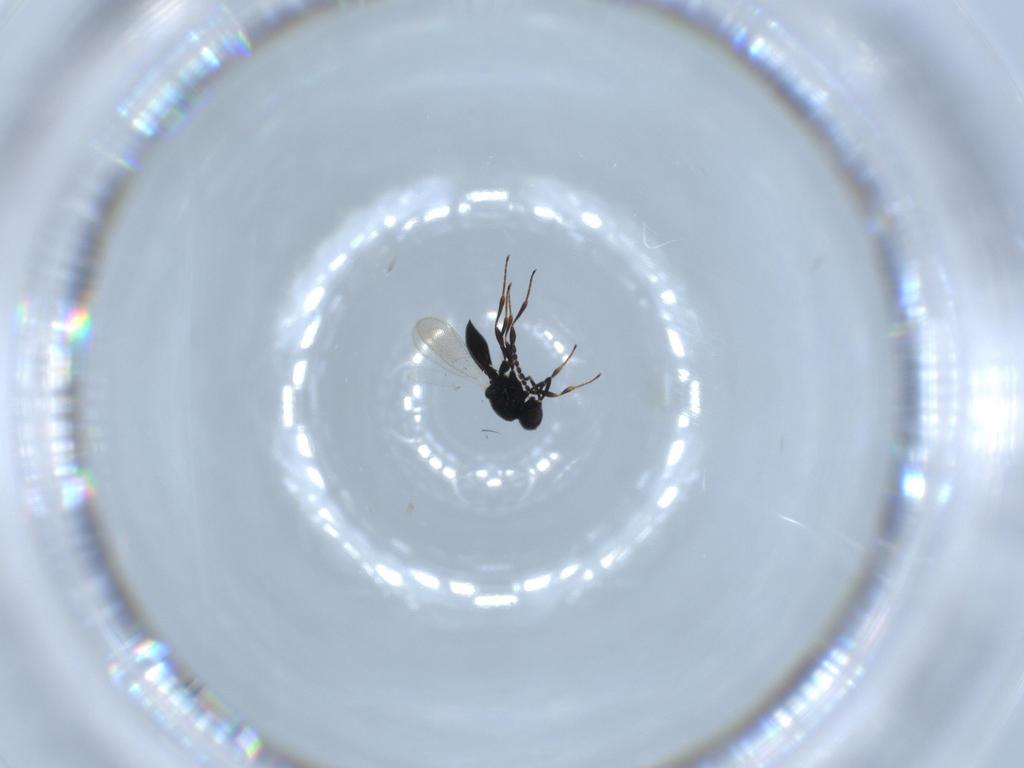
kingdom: Animalia
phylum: Arthropoda
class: Insecta
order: Hymenoptera
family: Platygastridae
